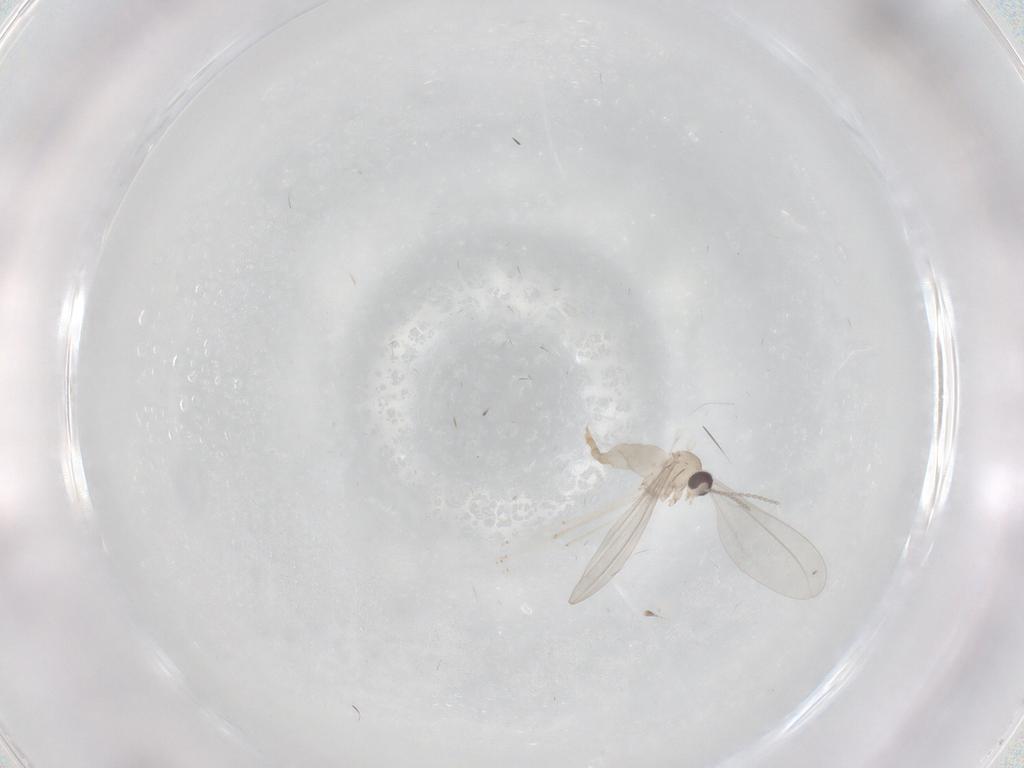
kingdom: Animalia
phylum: Arthropoda
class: Insecta
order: Diptera
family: Cecidomyiidae
